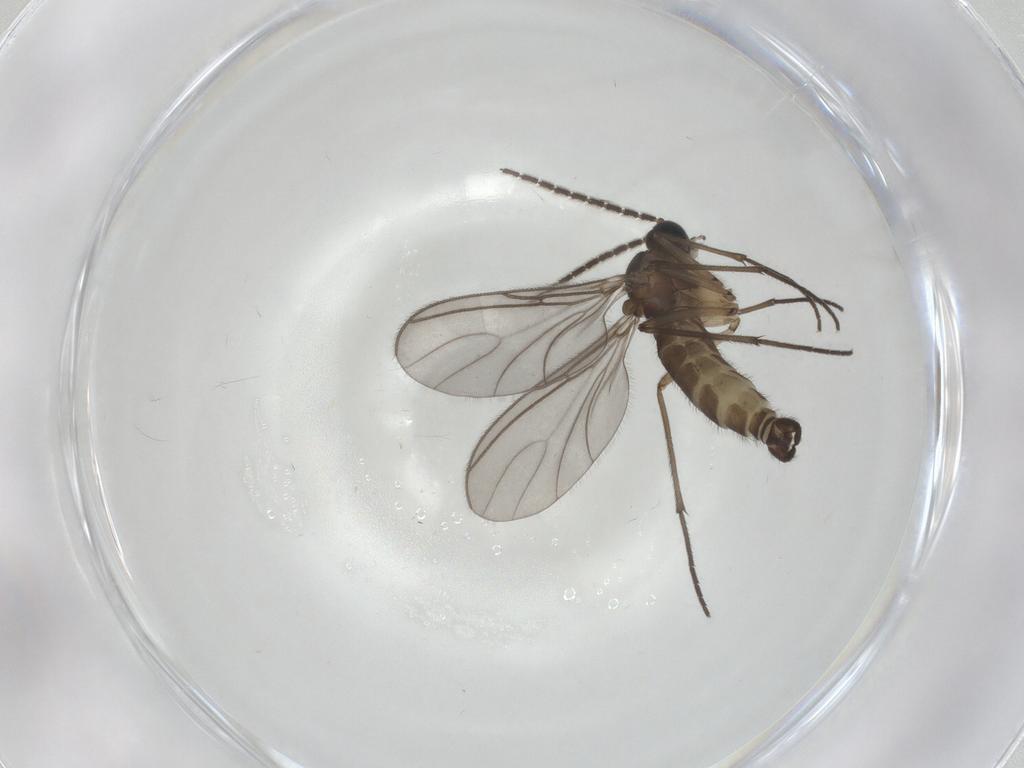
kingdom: Animalia
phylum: Arthropoda
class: Insecta
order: Diptera
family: Sciaridae
